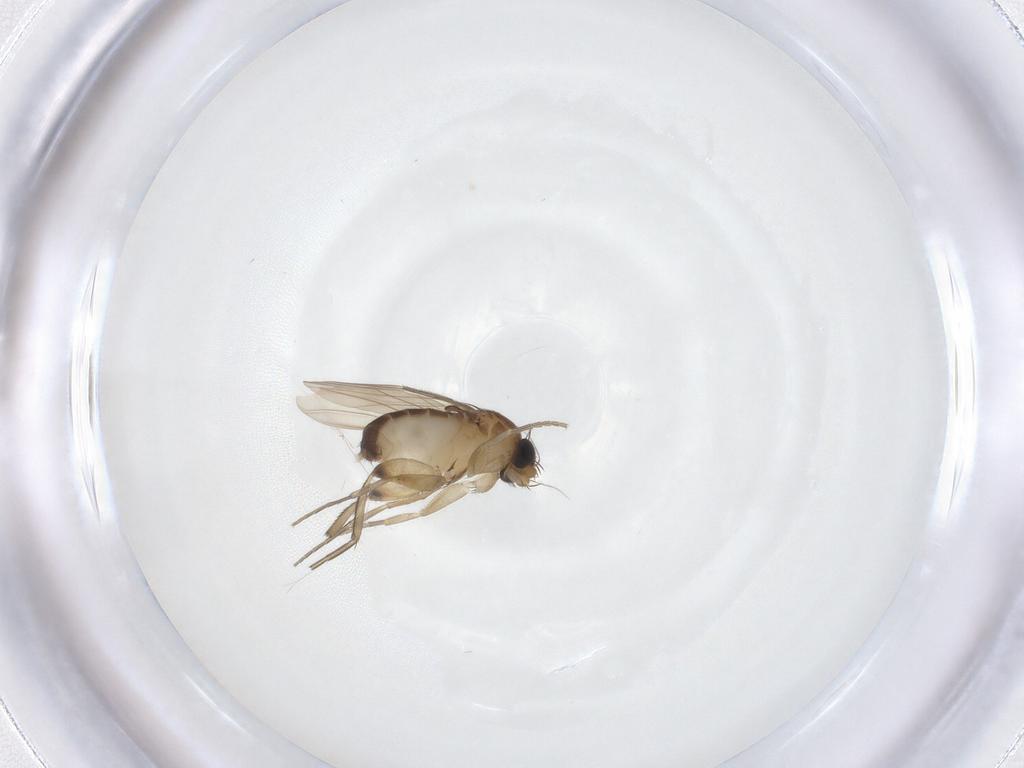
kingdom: Animalia
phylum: Arthropoda
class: Insecta
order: Diptera
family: Phoridae
